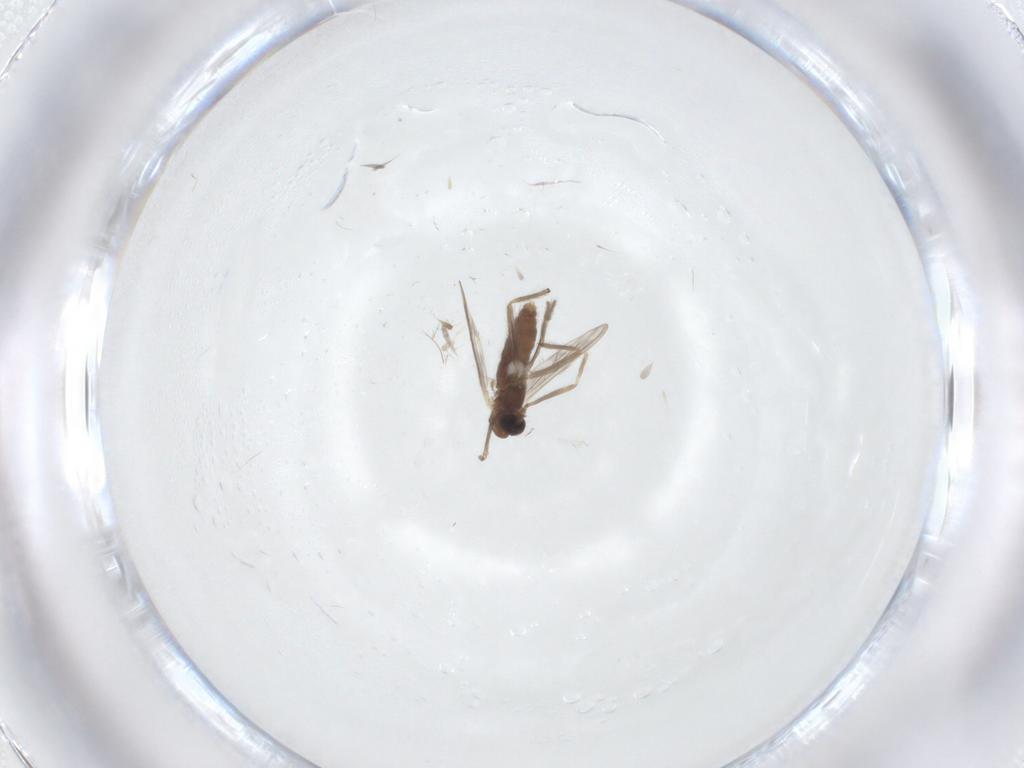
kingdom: Animalia
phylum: Arthropoda
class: Insecta
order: Diptera
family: Chironomidae
